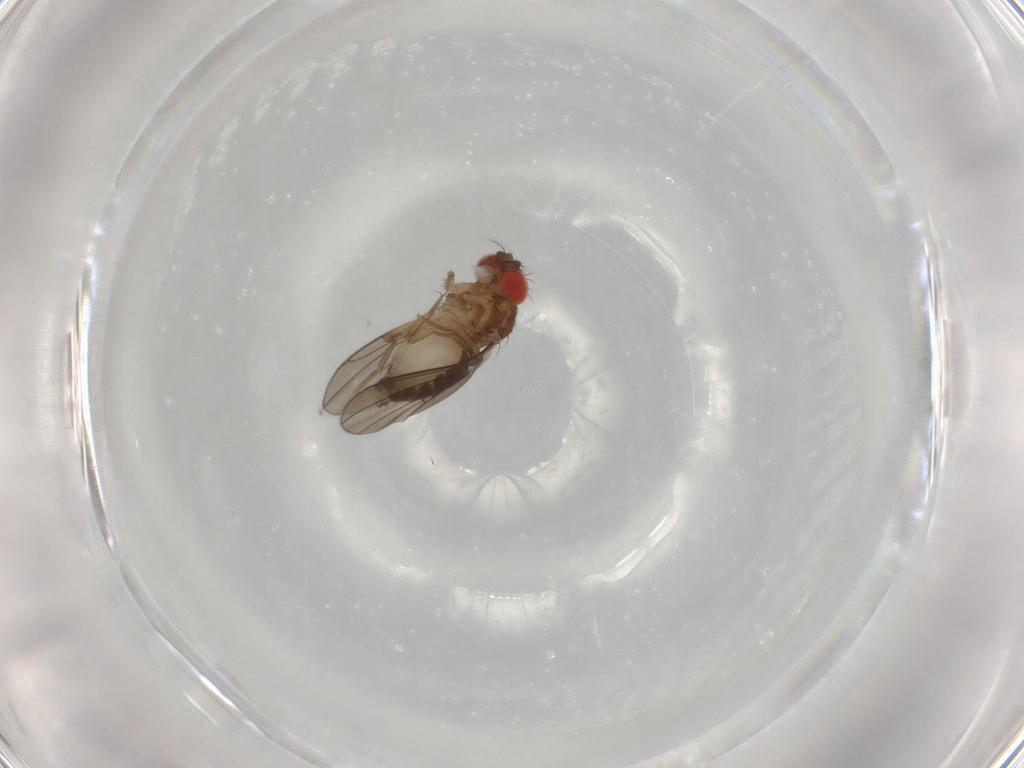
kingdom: Animalia
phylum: Arthropoda
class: Insecta
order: Diptera
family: Drosophilidae
